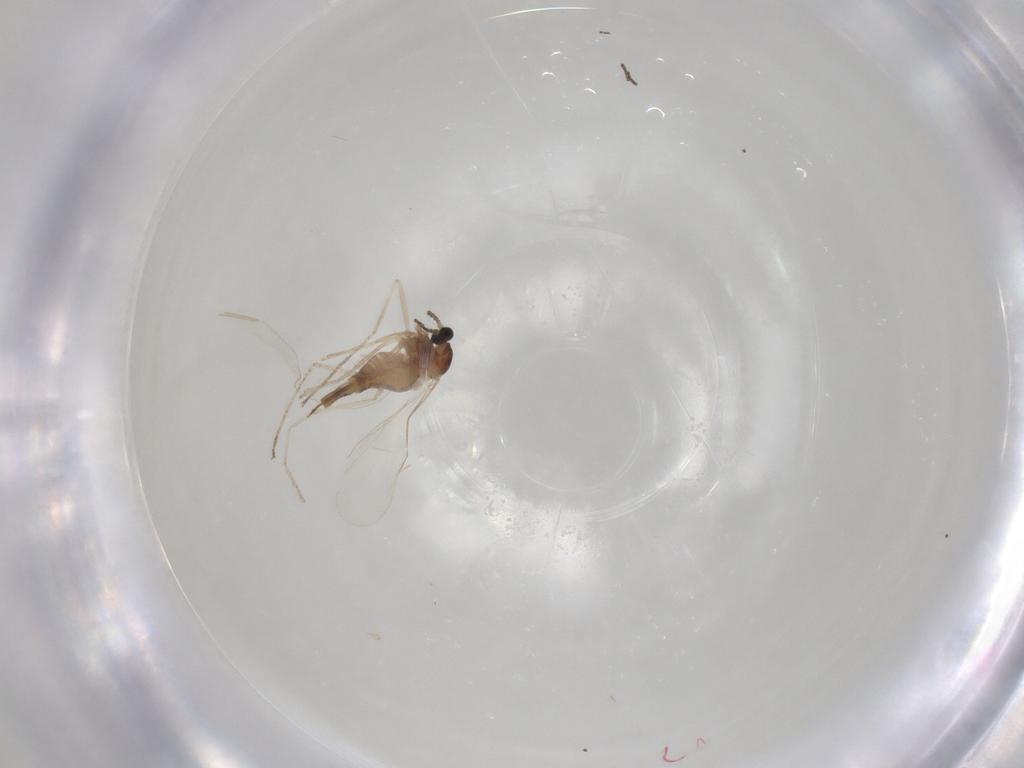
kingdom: Animalia
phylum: Arthropoda
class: Insecta
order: Diptera
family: Cecidomyiidae
